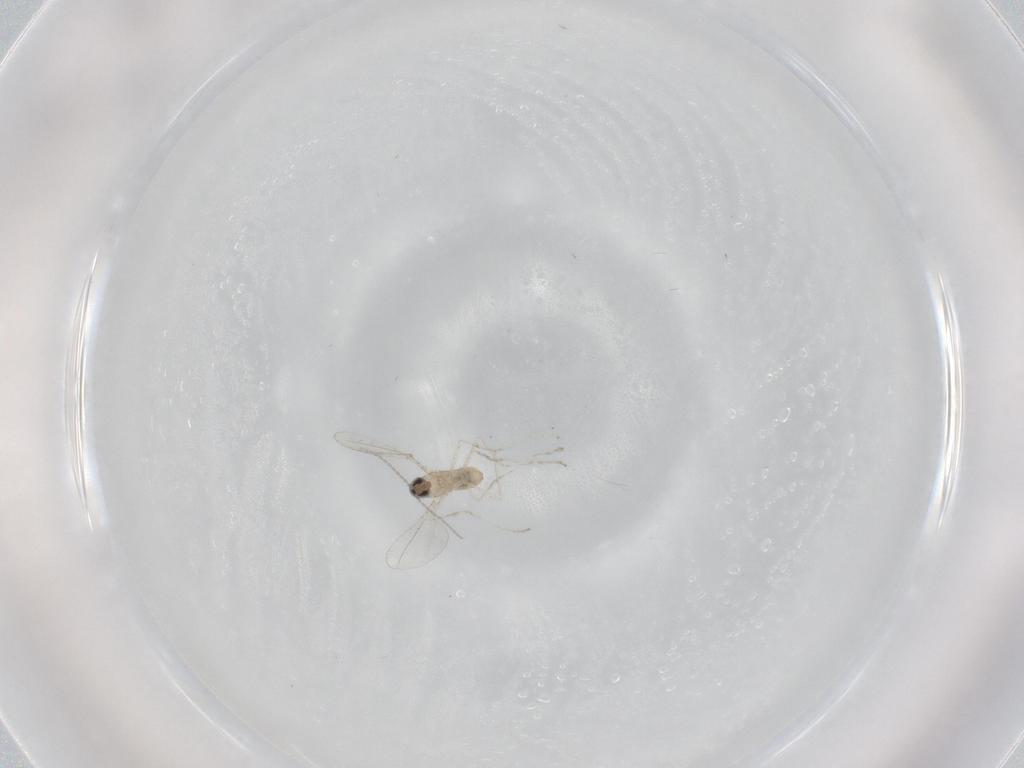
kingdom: Animalia
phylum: Arthropoda
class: Insecta
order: Diptera
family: Cecidomyiidae
